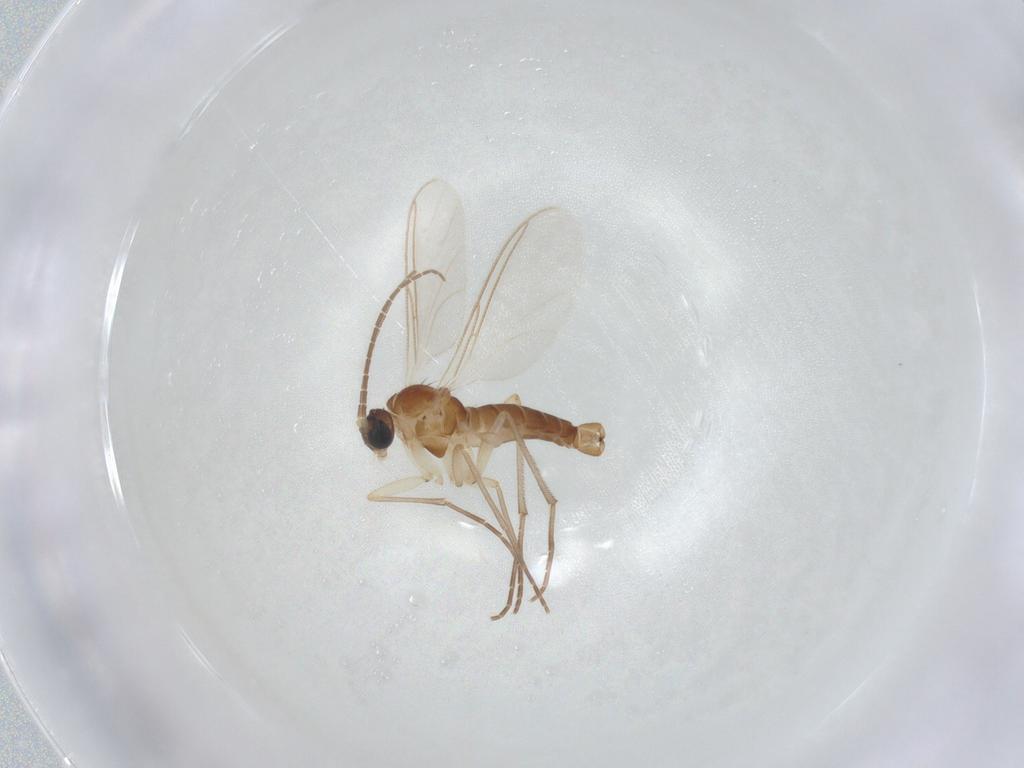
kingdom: Animalia
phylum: Arthropoda
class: Insecta
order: Diptera
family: Sciaridae
